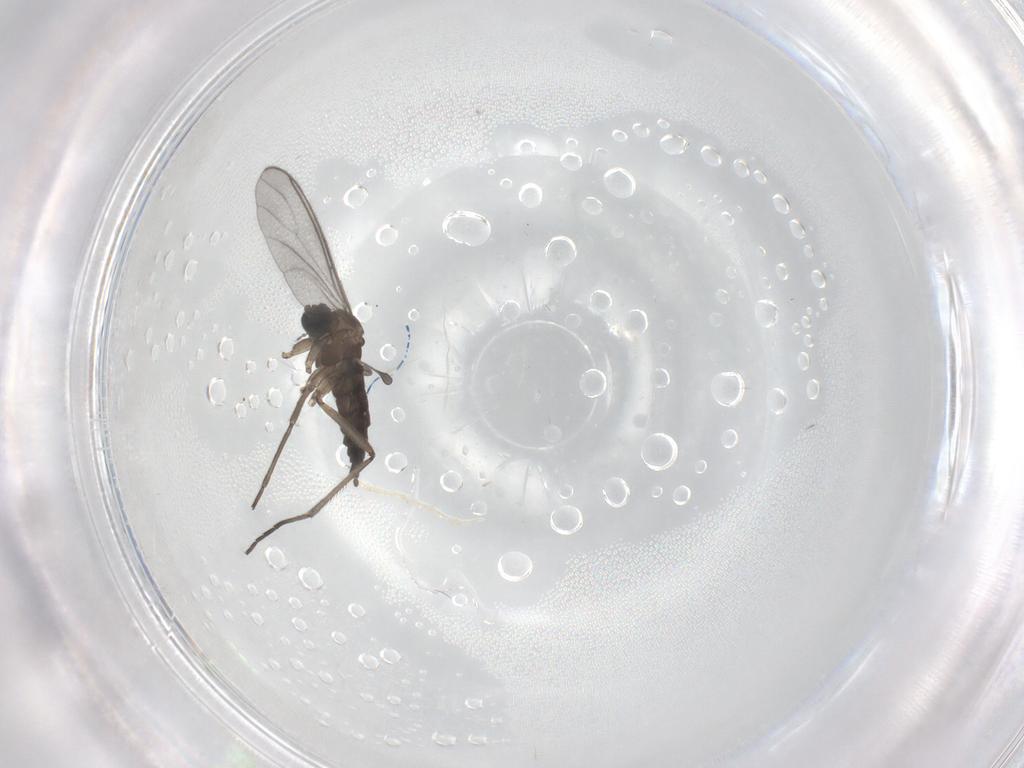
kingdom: Animalia
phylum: Arthropoda
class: Insecta
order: Diptera
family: Sciaridae
